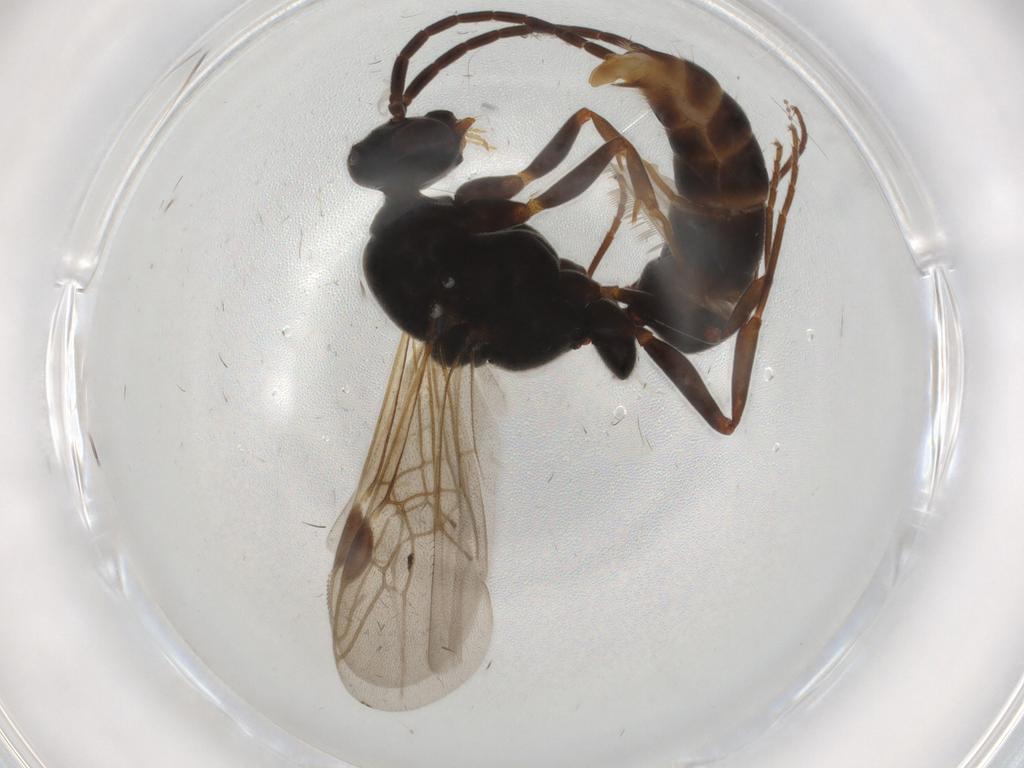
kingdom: Animalia
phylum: Arthropoda
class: Insecta
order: Hymenoptera
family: Formicidae
